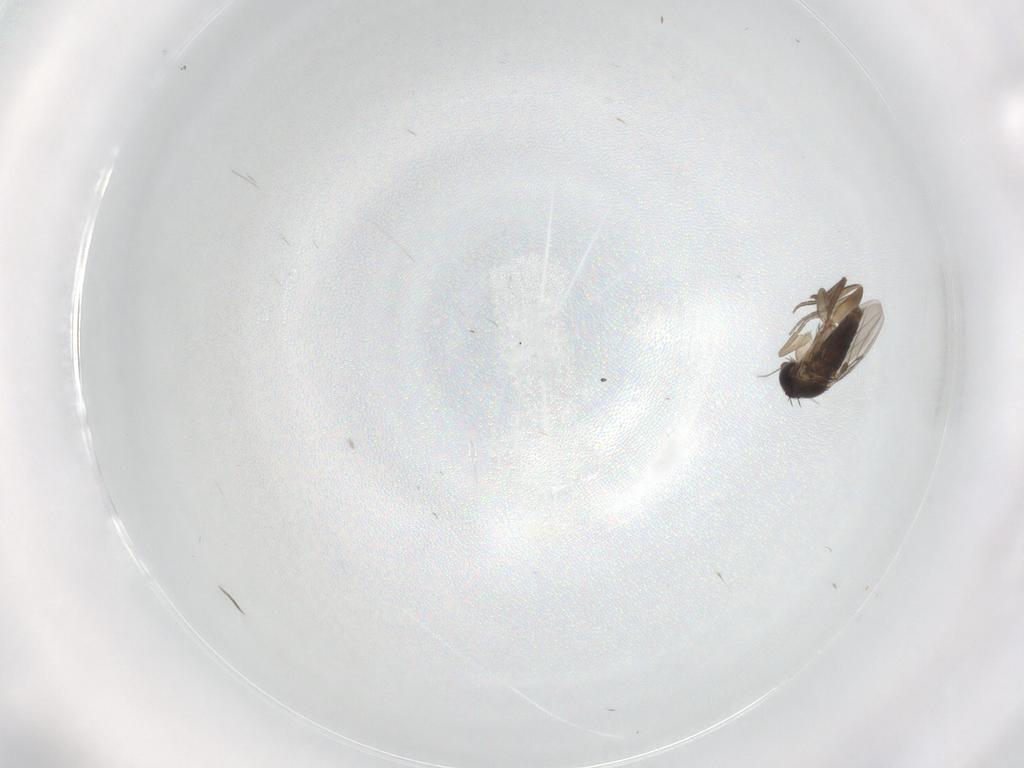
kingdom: Animalia
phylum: Arthropoda
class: Insecta
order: Diptera
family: Phoridae
